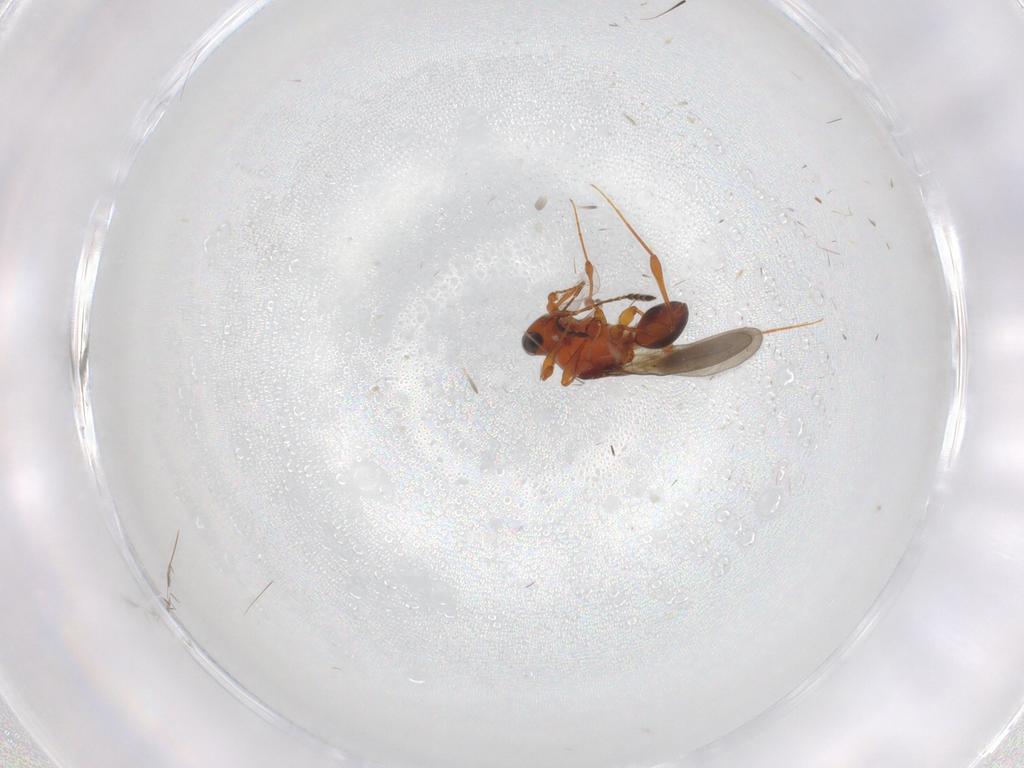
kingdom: Animalia
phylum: Arthropoda
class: Insecta
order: Hymenoptera
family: Platygastridae
